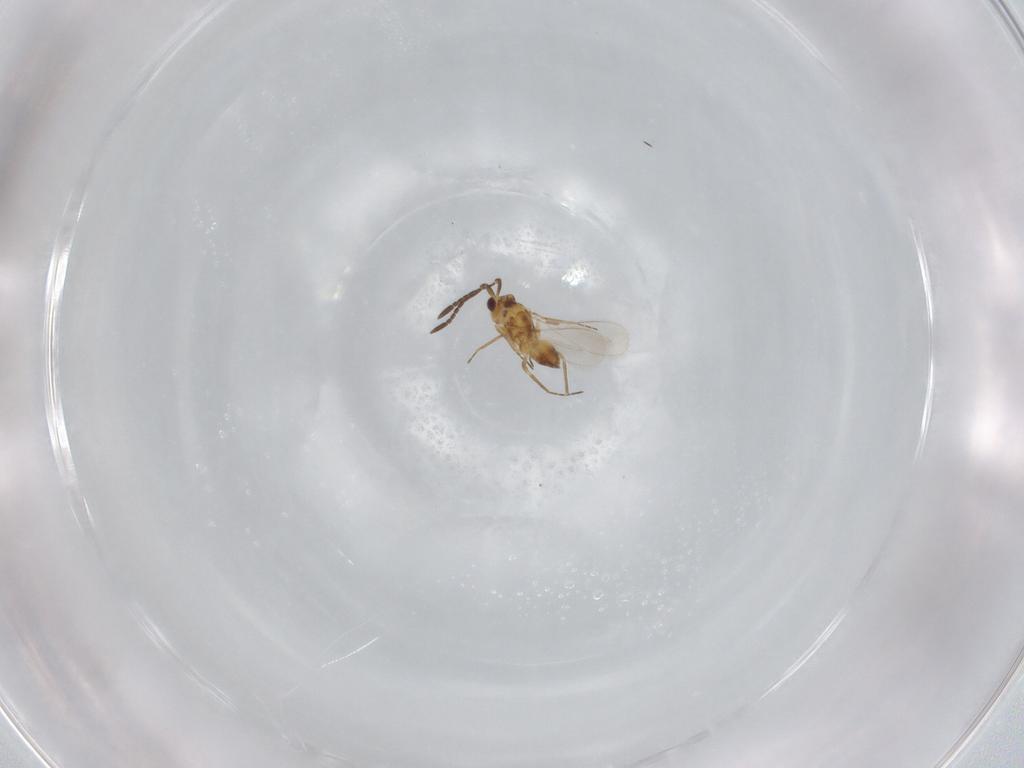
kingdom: Animalia
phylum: Arthropoda
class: Insecta
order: Hymenoptera
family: Mymaridae
